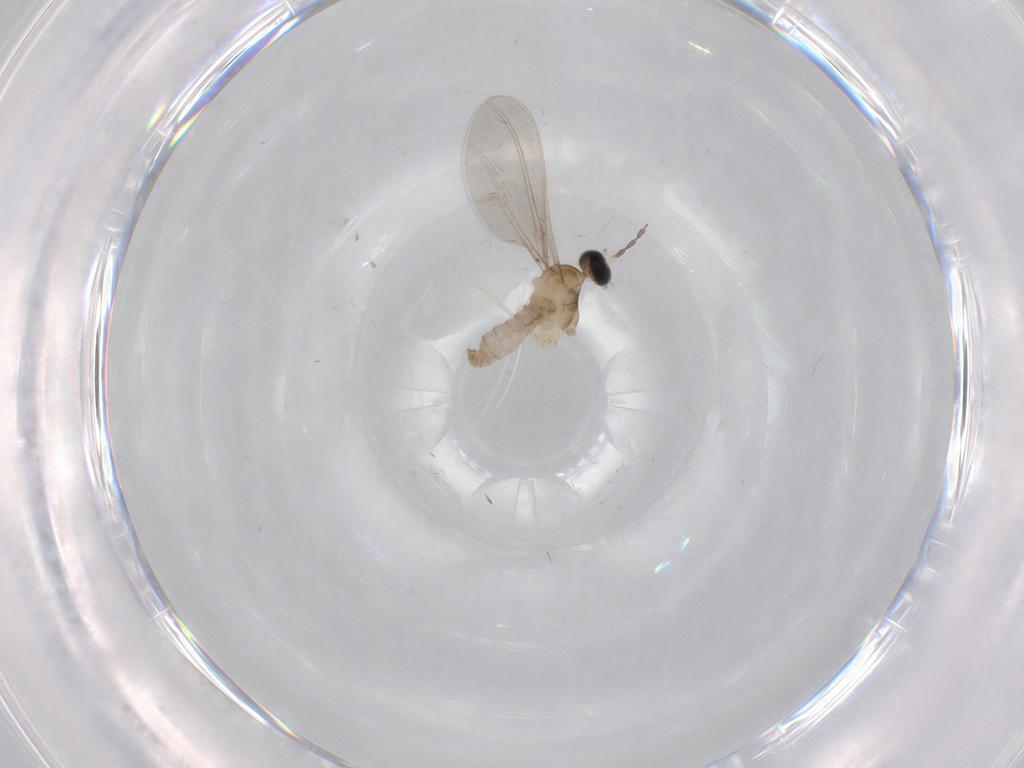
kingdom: Animalia
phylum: Arthropoda
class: Insecta
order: Diptera
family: Cecidomyiidae
